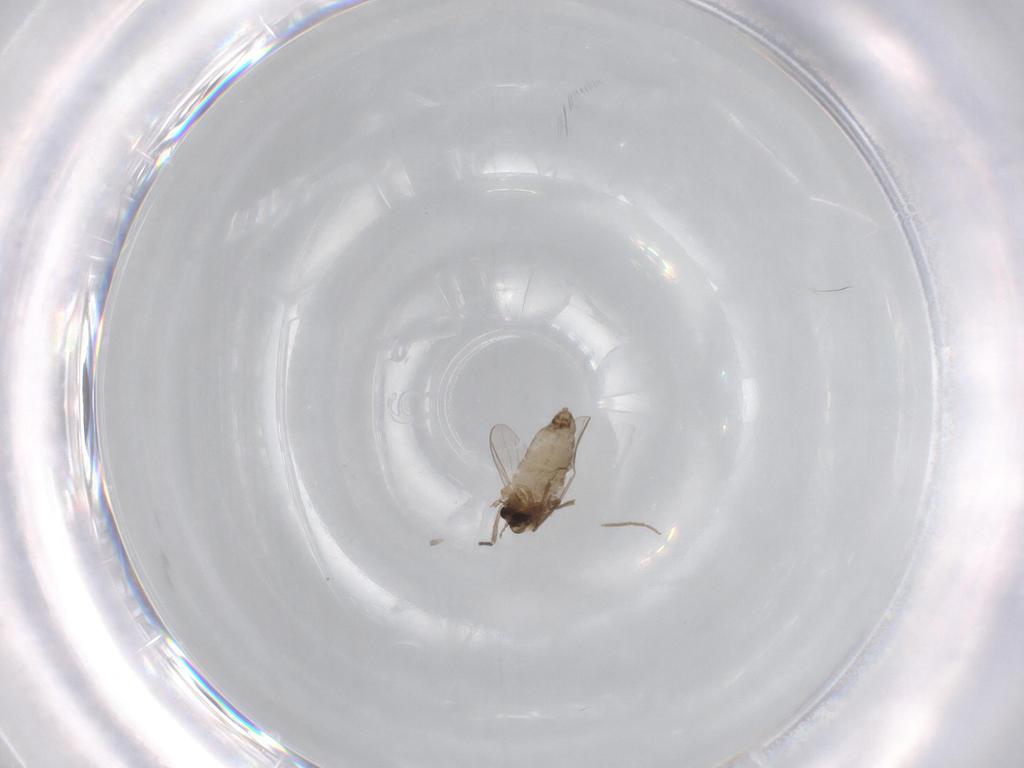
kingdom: Animalia
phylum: Arthropoda
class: Insecta
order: Diptera
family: Chironomidae
